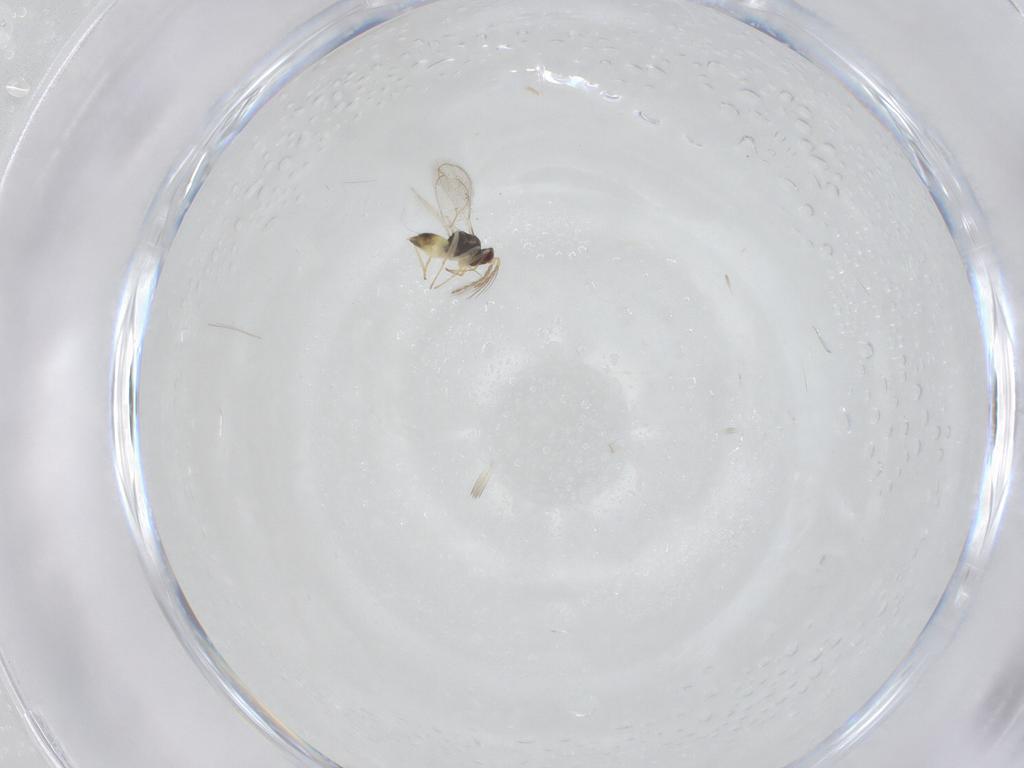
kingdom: Animalia
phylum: Arthropoda
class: Insecta
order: Hymenoptera
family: Eulophidae
